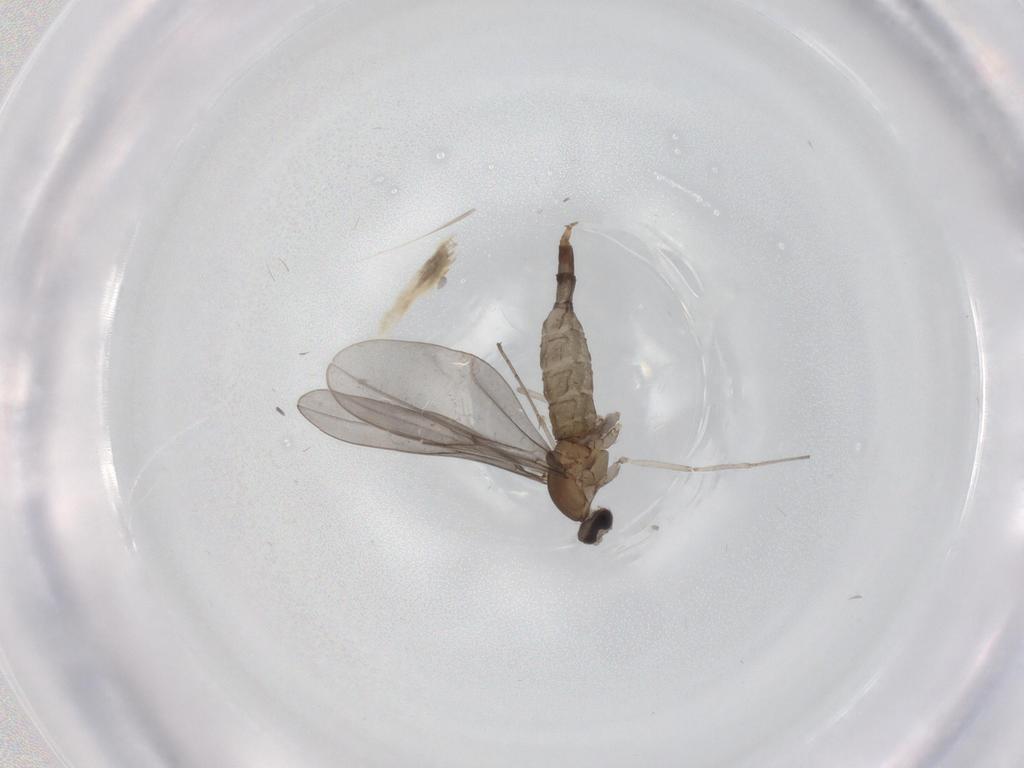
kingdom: Animalia
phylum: Arthropoda
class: Insecta
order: Diptera
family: Cecidomyiidae
